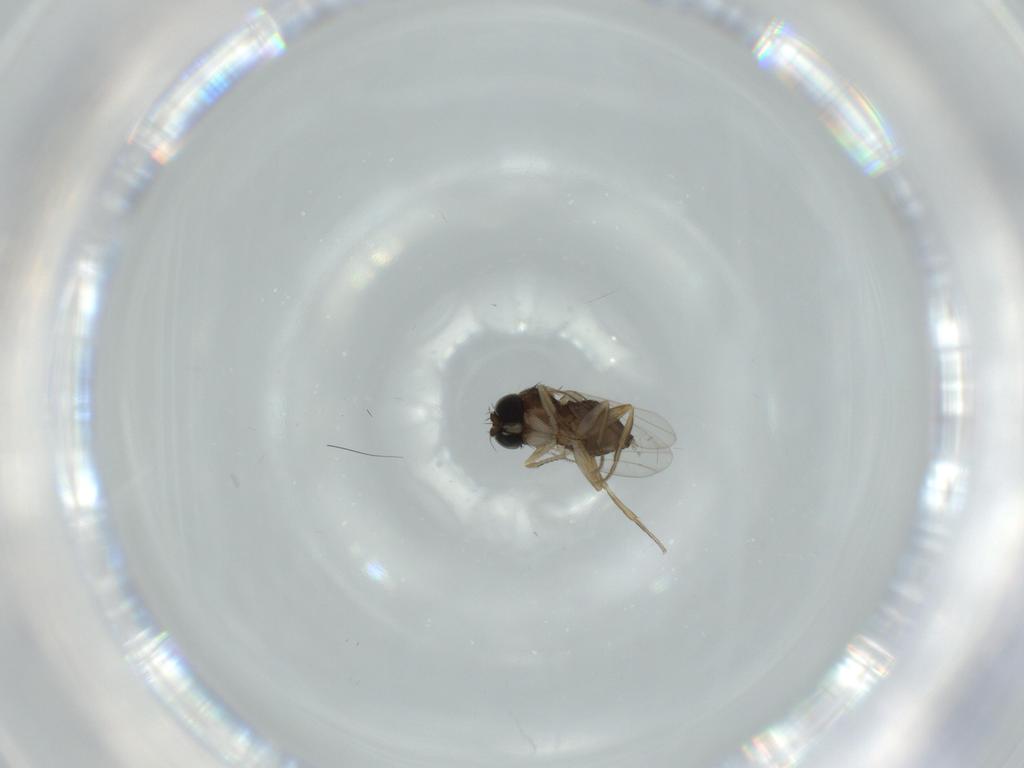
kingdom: Animalia
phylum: Arthropoda
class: Insecta
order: Diptera
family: Phoridae
